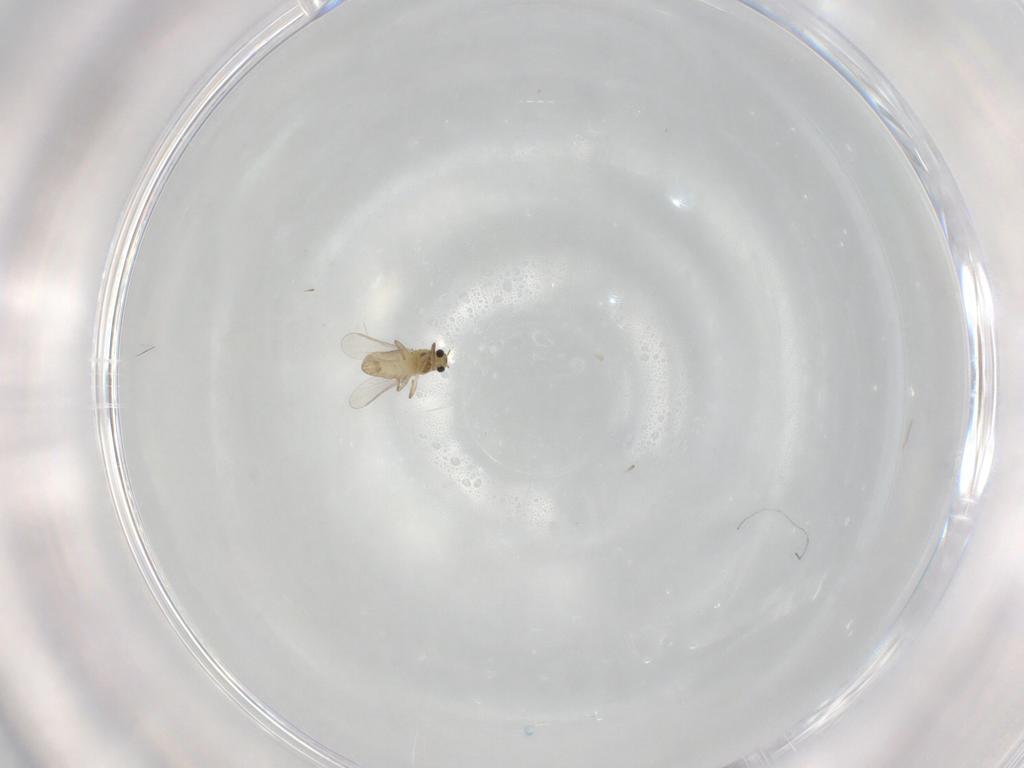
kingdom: Animalia
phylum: Arthropoda
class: Insecta
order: Diptera
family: Chironomidae
